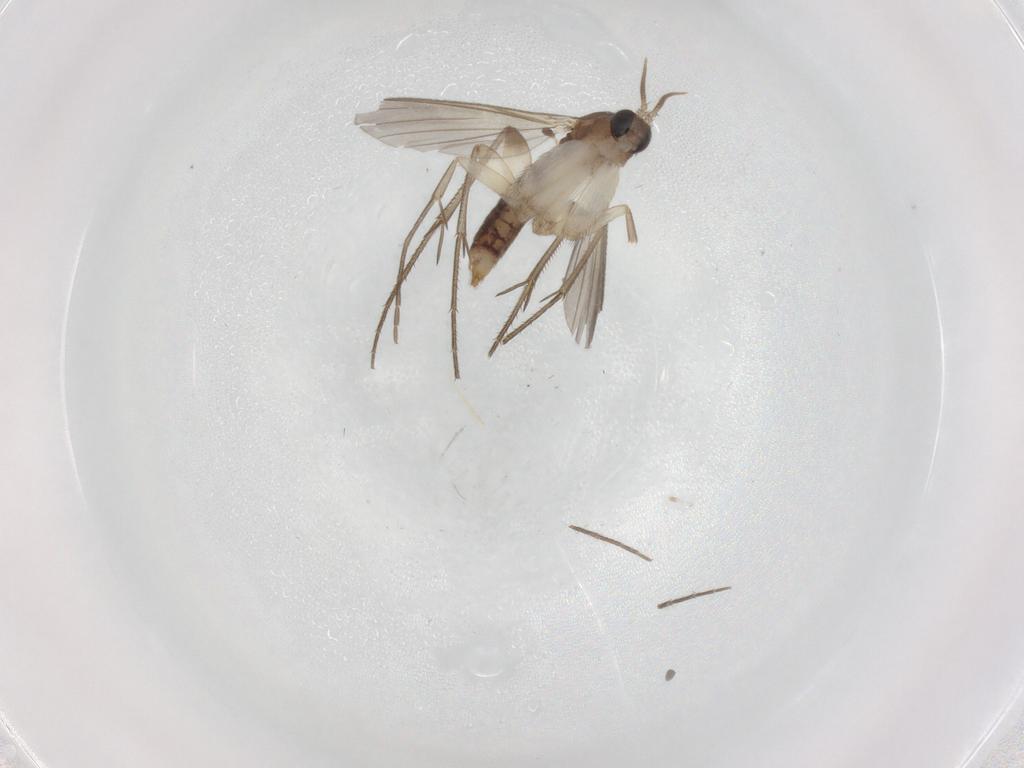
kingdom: Animalia
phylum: Arthropoda
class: Insecta
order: Diptera
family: Mycetophilidae
